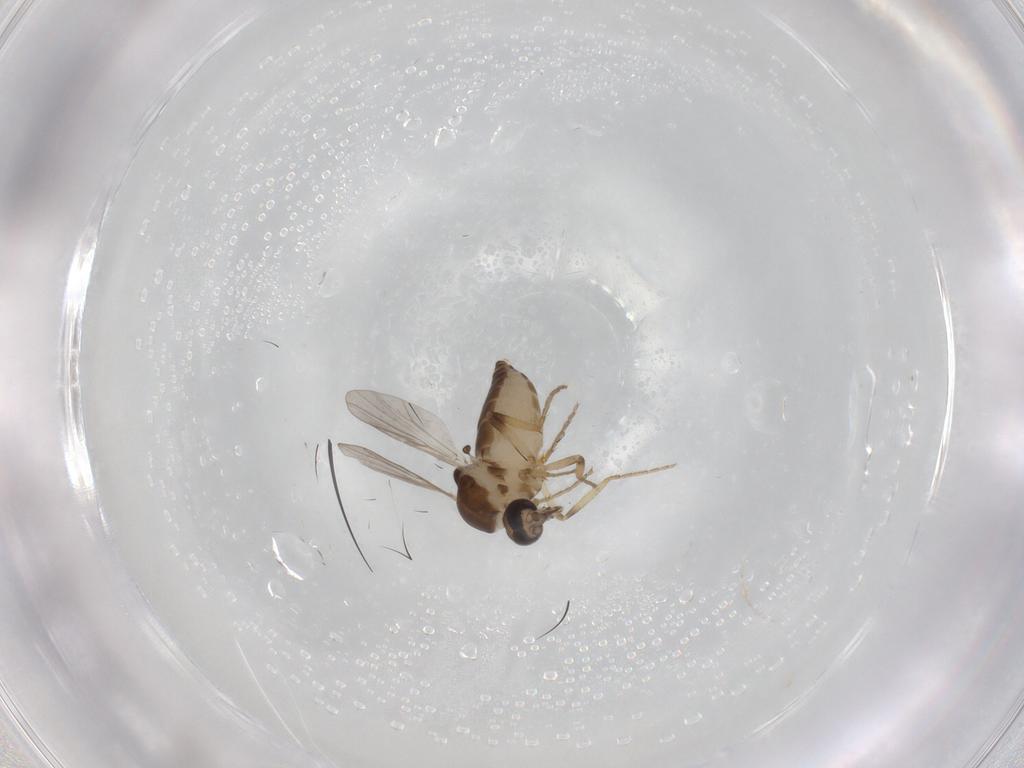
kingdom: Animalia
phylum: Arthropoda
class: Insecta
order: Diptera
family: Ceratopogonidae
